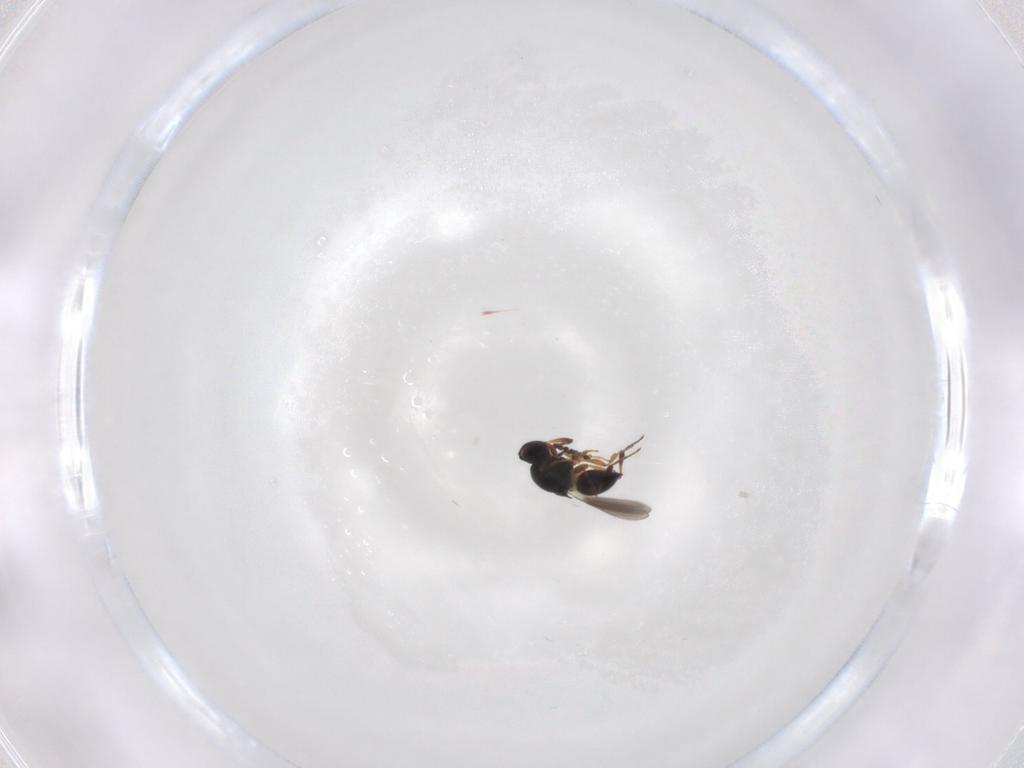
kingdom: Animalia
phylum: Arthropoda
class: Insecta
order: Hymenoptera
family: Platygastridae
